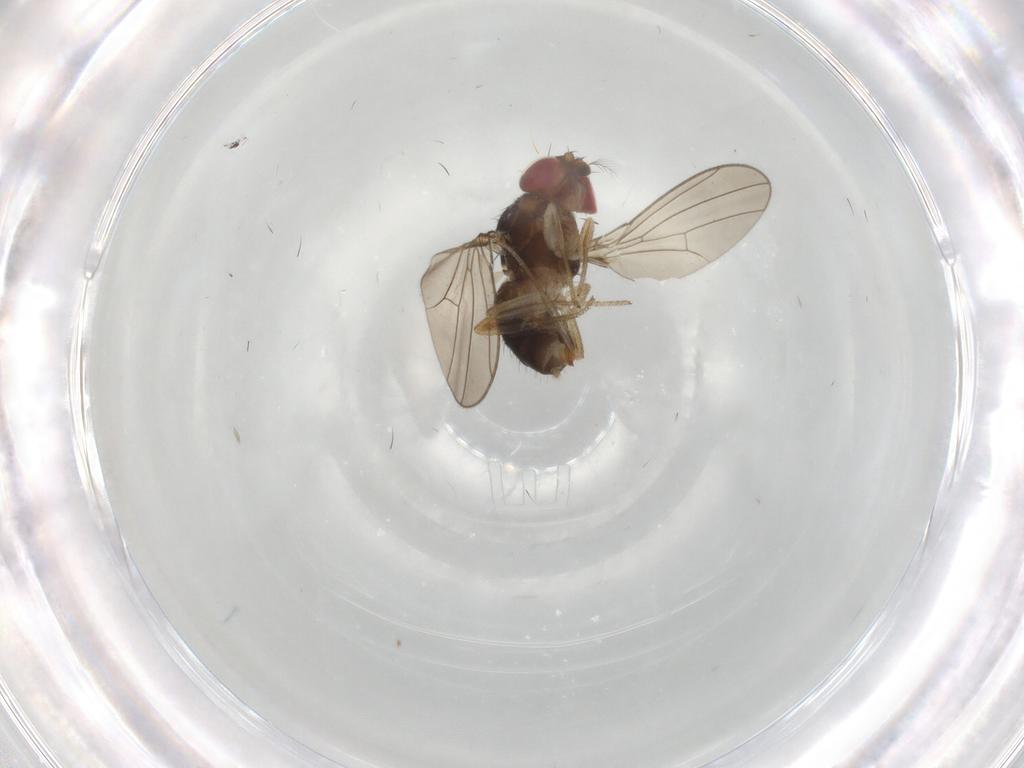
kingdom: Animalia
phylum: Arthropoda
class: Insecta
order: Diptera
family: Drosophilidae
